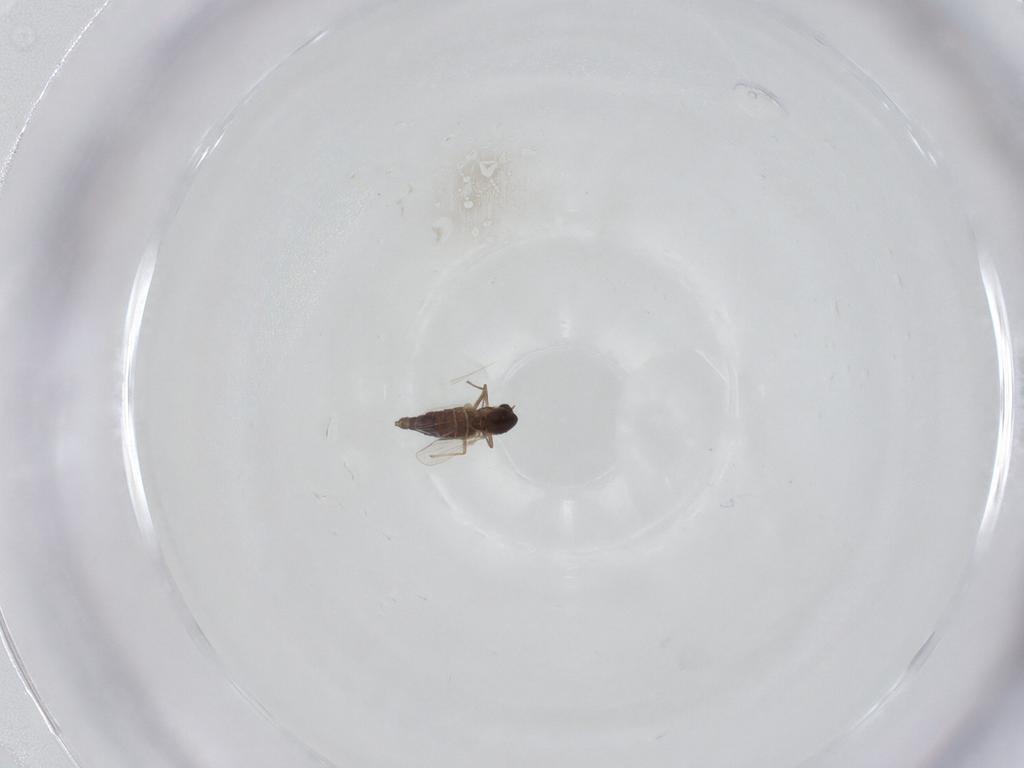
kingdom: Animalia
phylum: Arthropoda
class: Insecta
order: Diptera
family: Chironomidae
